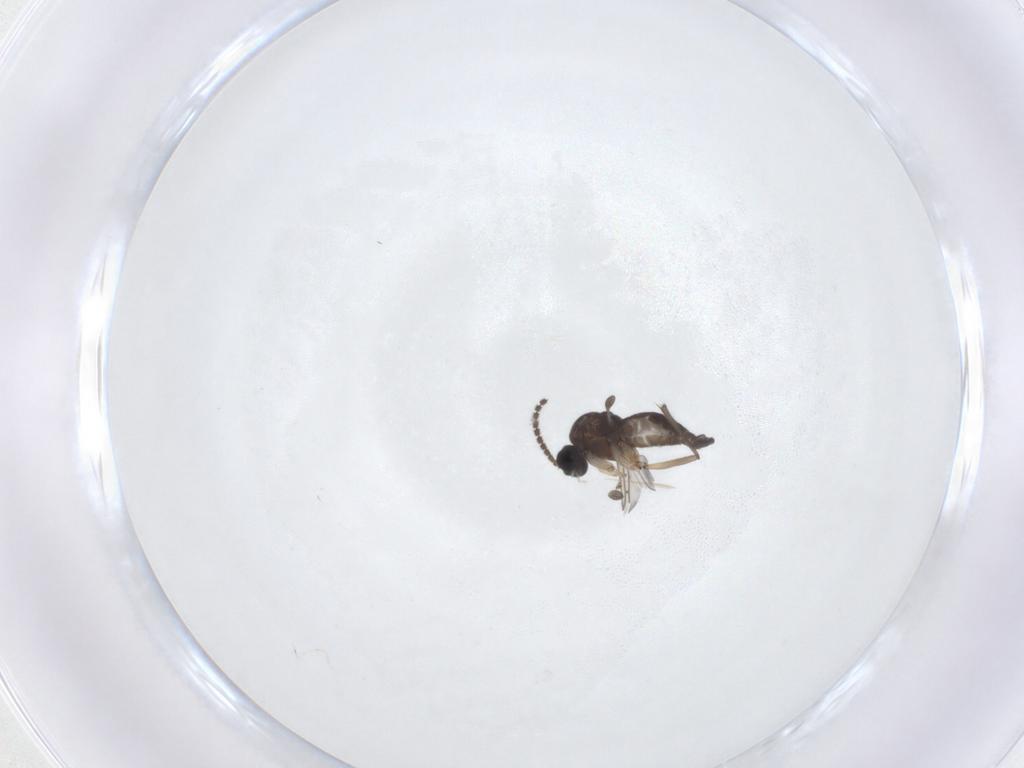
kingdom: Animalia
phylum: Arthropoda
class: Insecta
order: Diptera
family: Sciaridae
